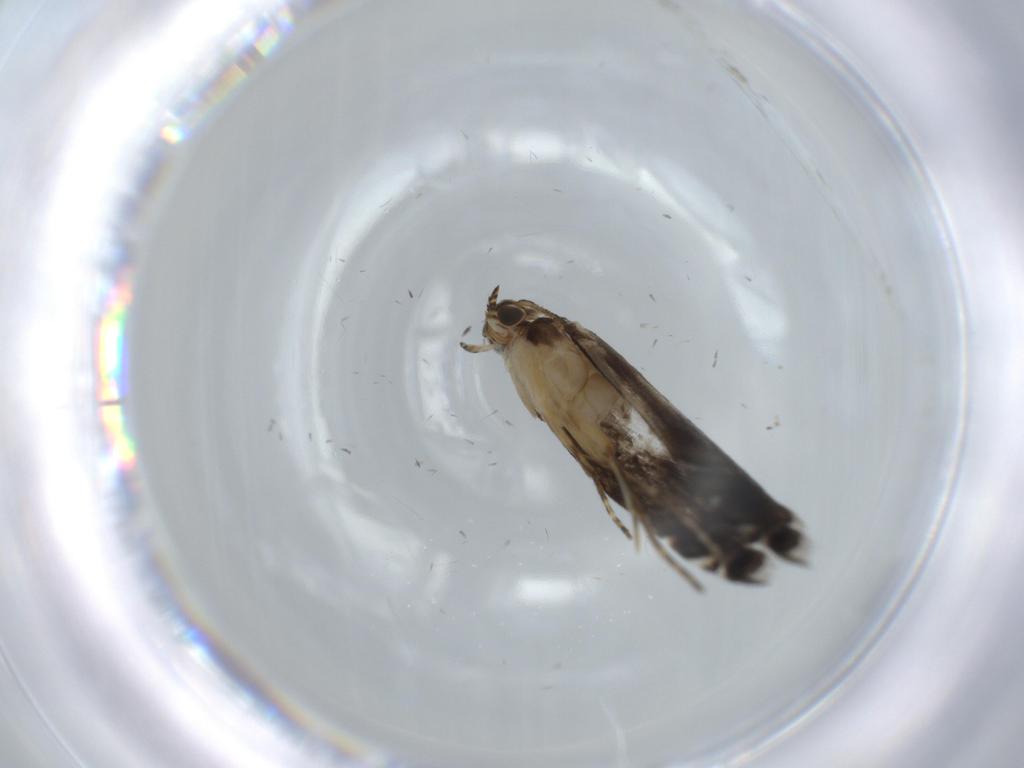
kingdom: Animalia
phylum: Arthropoda
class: Insecta
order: Lepidoptera
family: Glyphipterigidae
